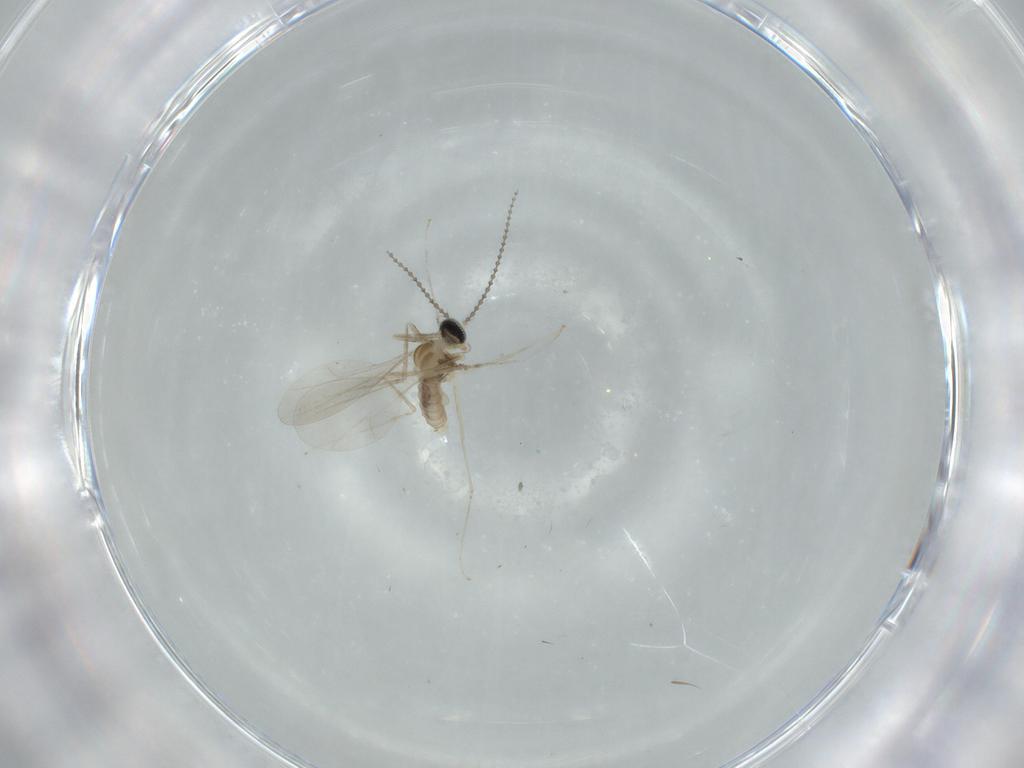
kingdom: Animalia
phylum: Arthropoda
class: Insecta
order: Diptera
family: Cecidomyiidae
